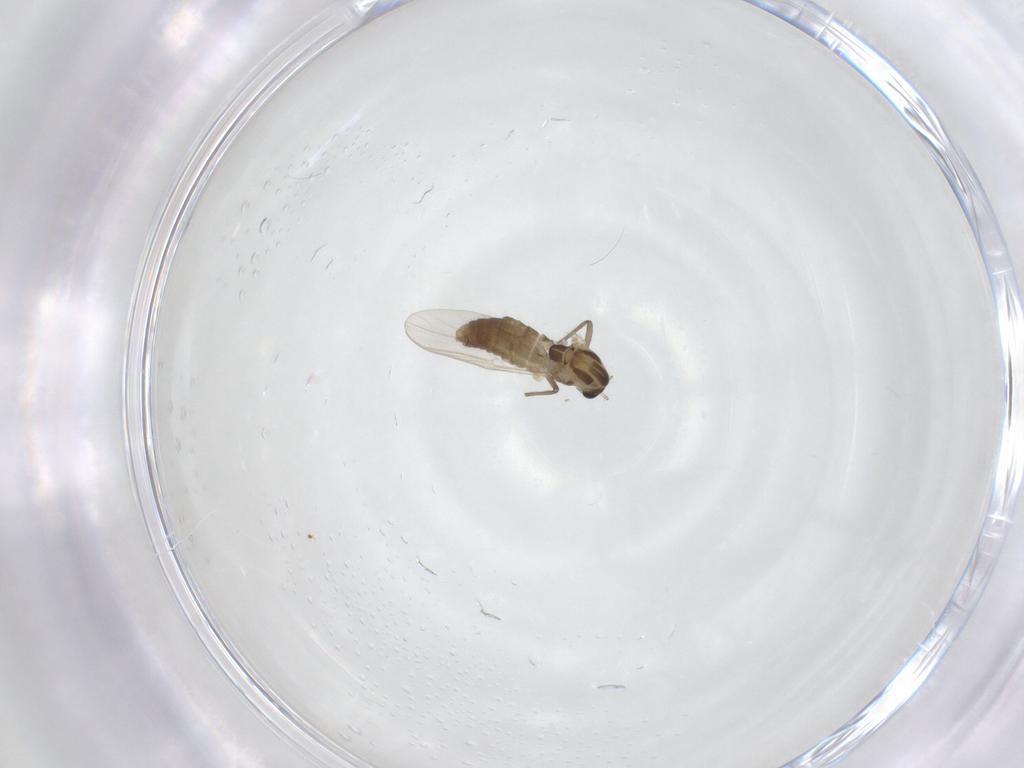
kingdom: Animalia
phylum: Arthropoda
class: Insecta
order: Diptera
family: Chironomidae
